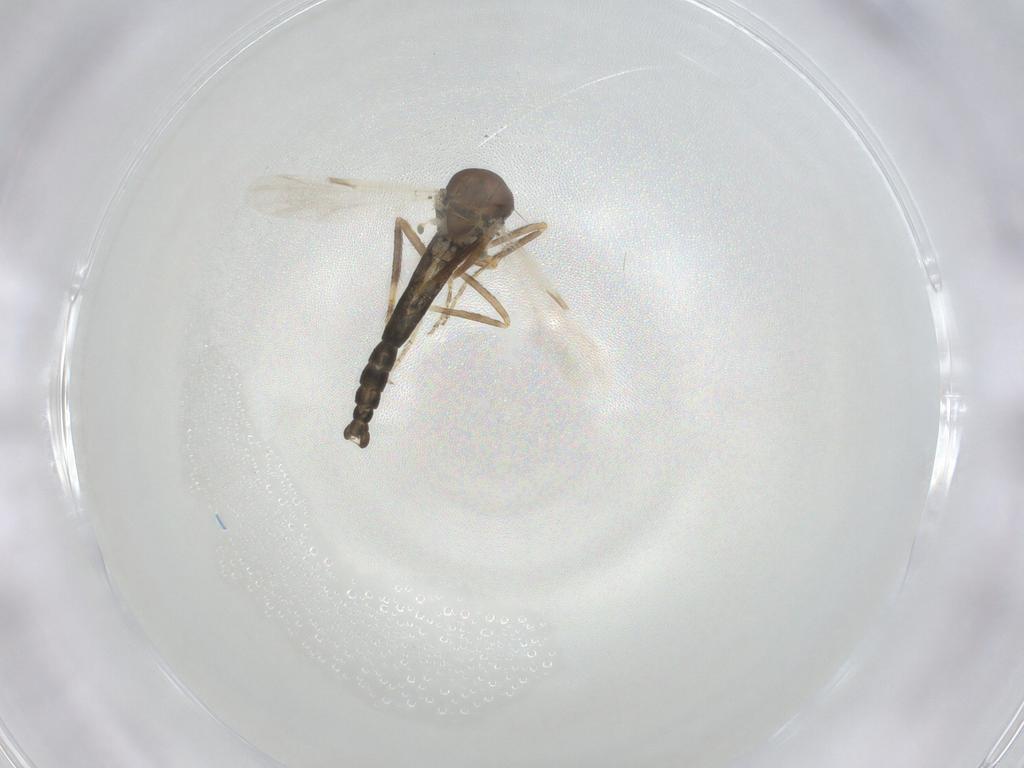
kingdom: Animalia
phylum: Arthropoda
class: Insecta
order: Diptera
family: Ceratopogonidae
